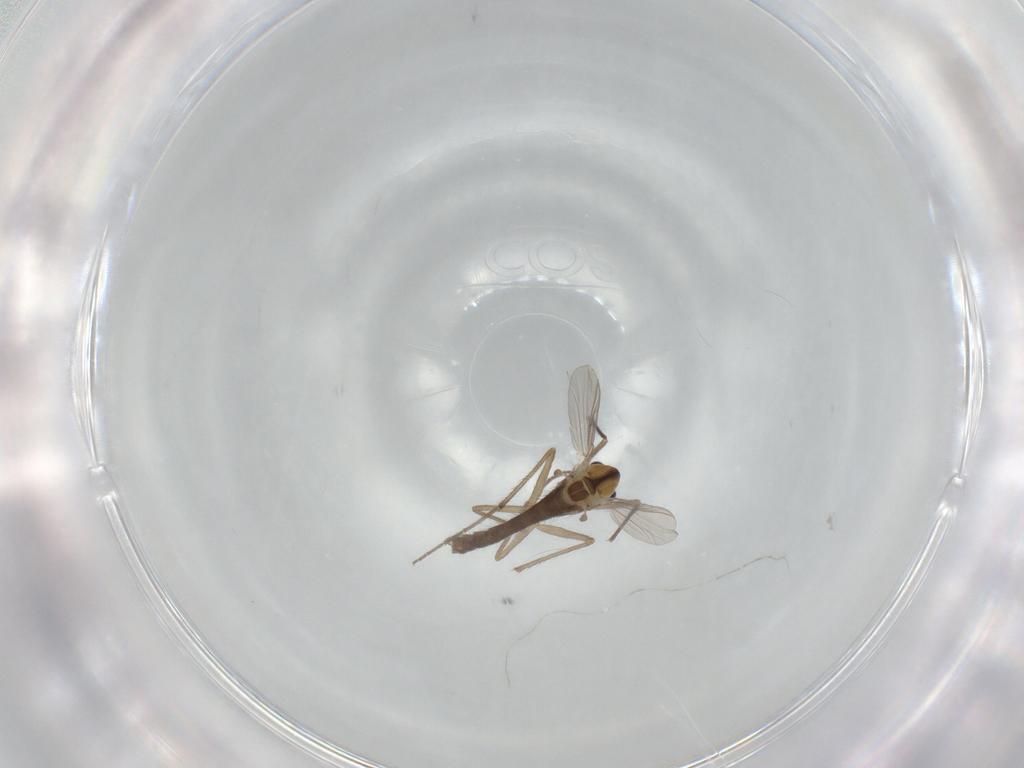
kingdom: Animalia
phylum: Arthropoda
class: Insecta
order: Diptera
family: Chironomidae
